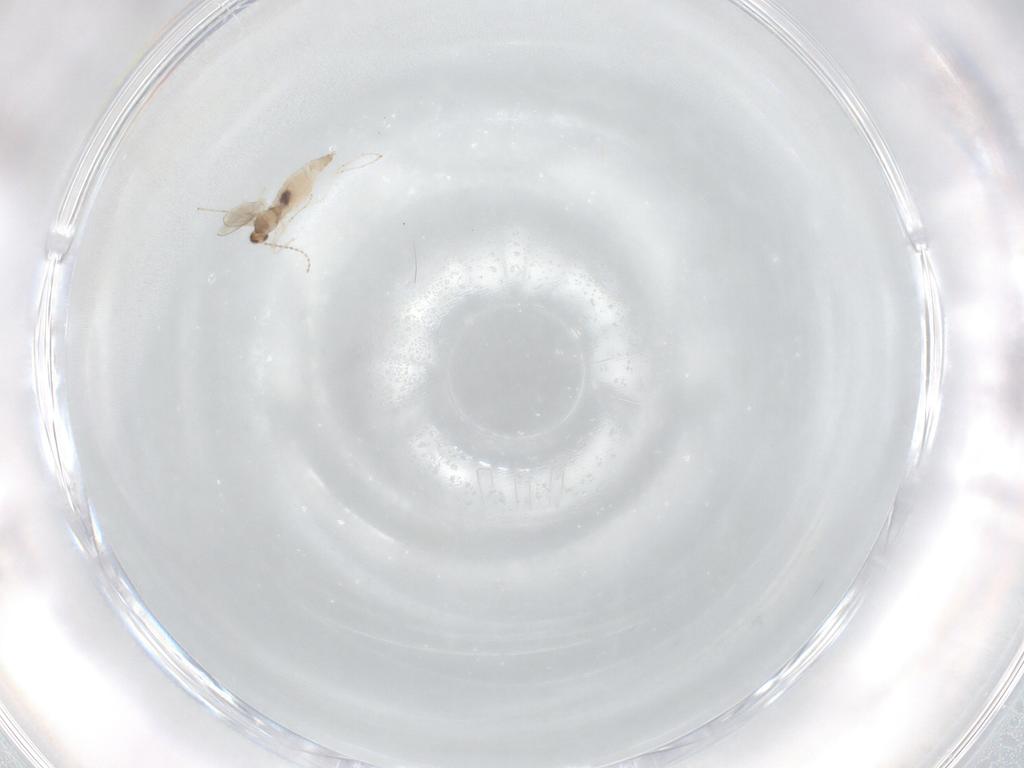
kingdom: Animalia
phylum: Arthropoda
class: Insecta
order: Diptera
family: Cecidomyiidae
